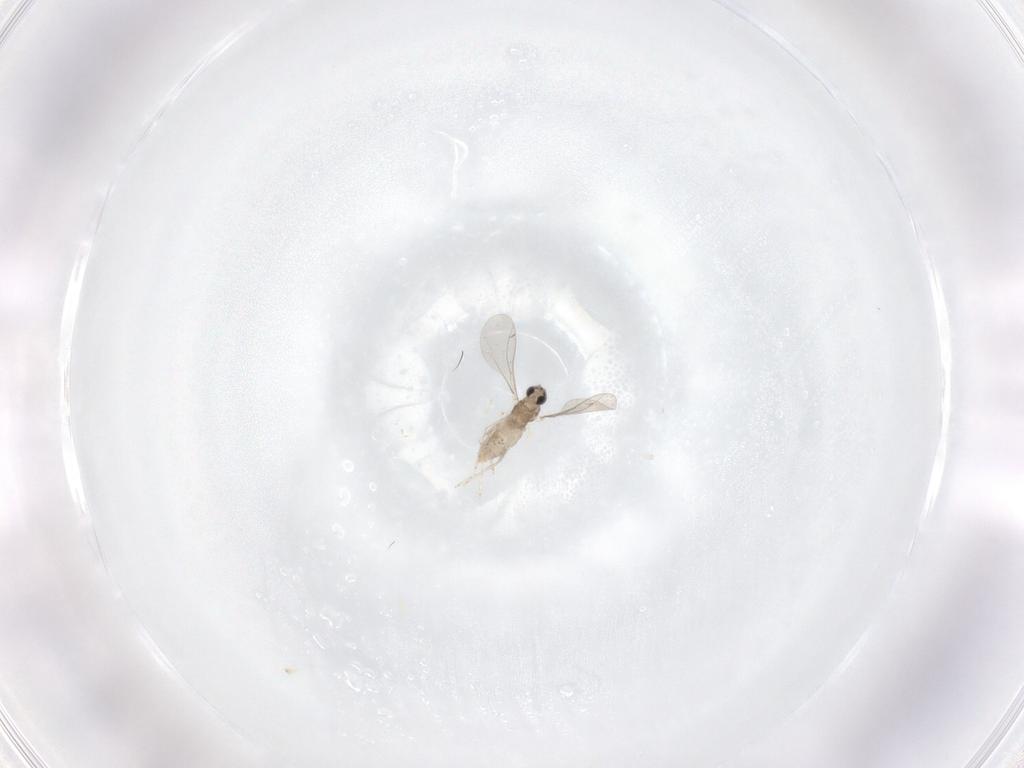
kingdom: Animalia
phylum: Arthropoda
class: Insecta
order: Diptera
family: Cecidomyiidae
